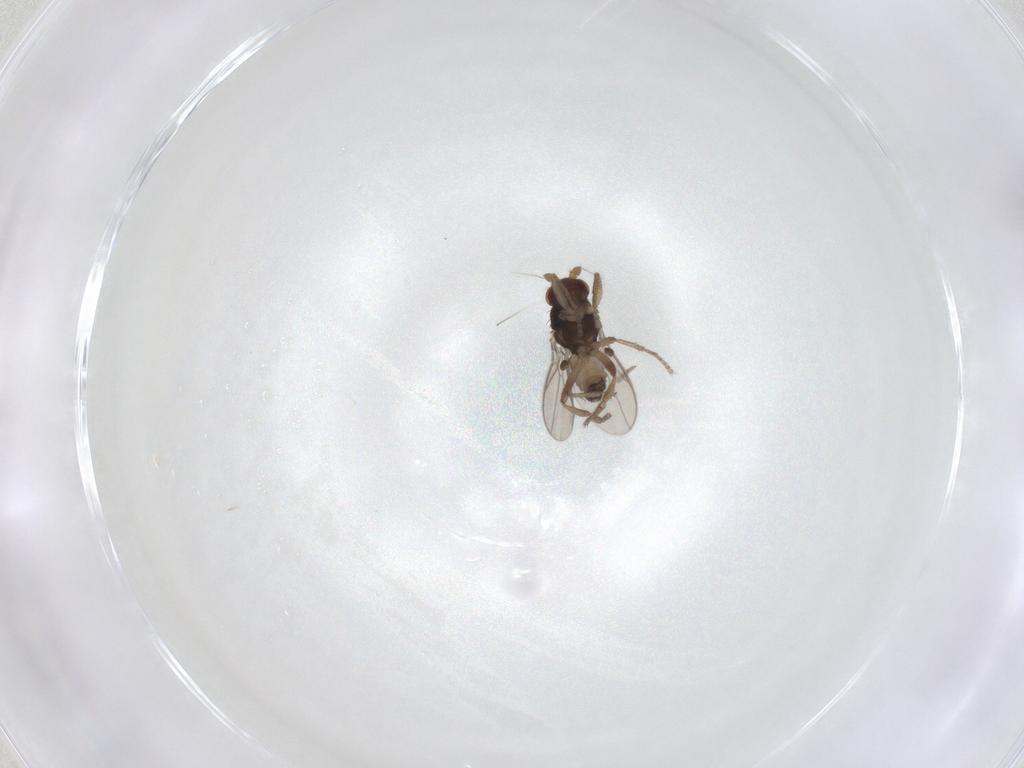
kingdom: Animalia
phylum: Arthropoda
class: Insecta
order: Diptera
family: Sphaeroceridae
